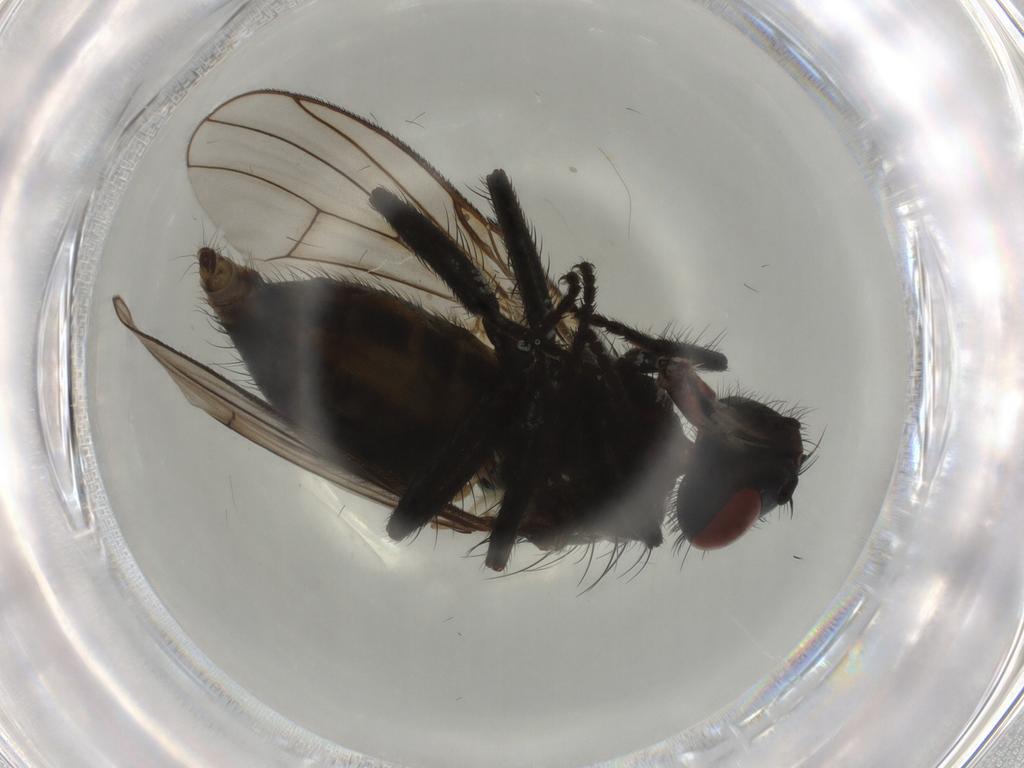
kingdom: Animalia
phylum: Arthropoda
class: Insecta
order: Diptera
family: Muscidae
